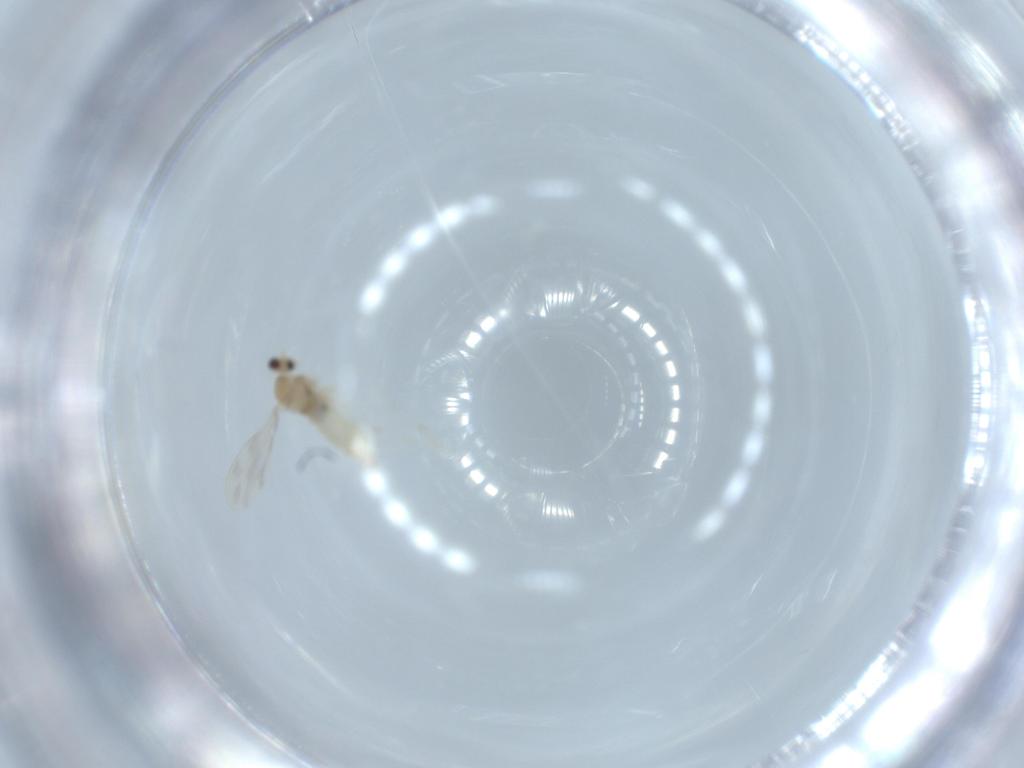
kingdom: Animalia
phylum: Arthropoda
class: Insecta
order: Diptera
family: Cecidomyiidae
